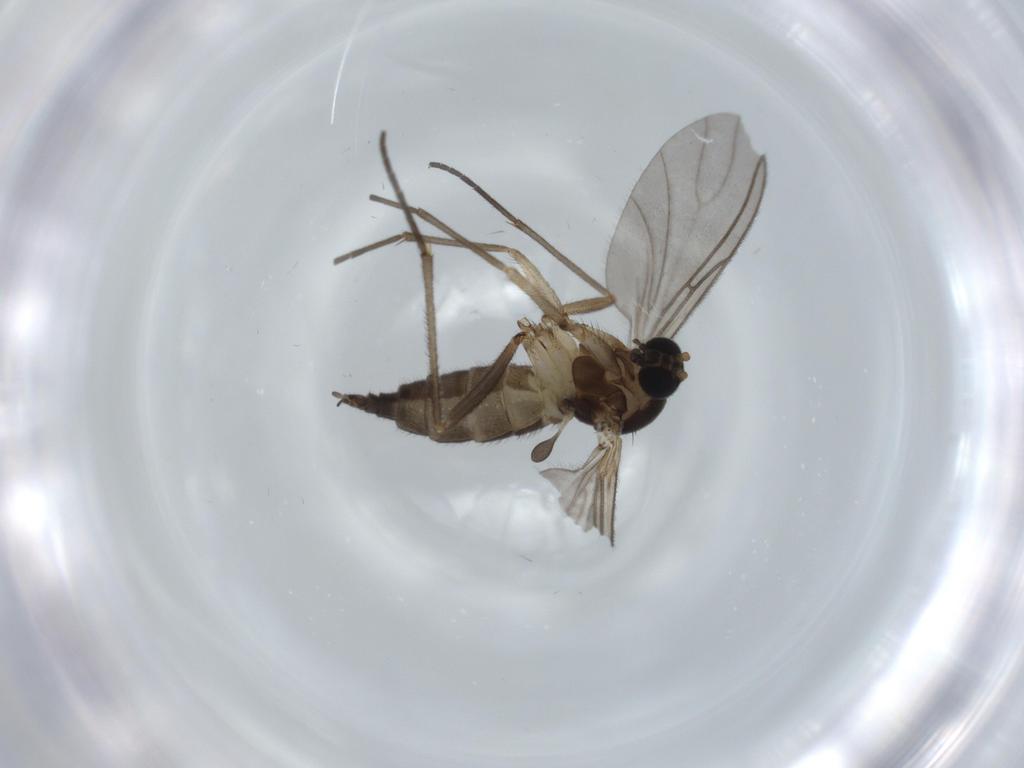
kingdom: Animalia
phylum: Arthropoda
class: Insecta
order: Diptera
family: Sciaridae
